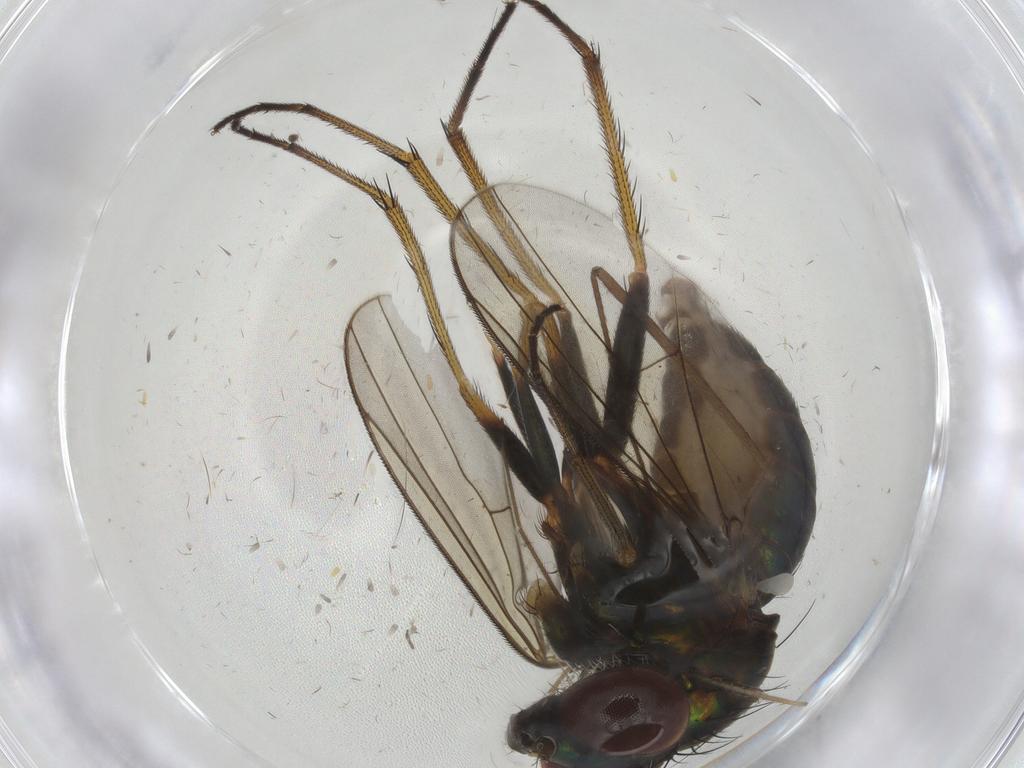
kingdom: Animalia
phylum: Arthropoda
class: Insecta
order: Diptera
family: Dolichopodidae
